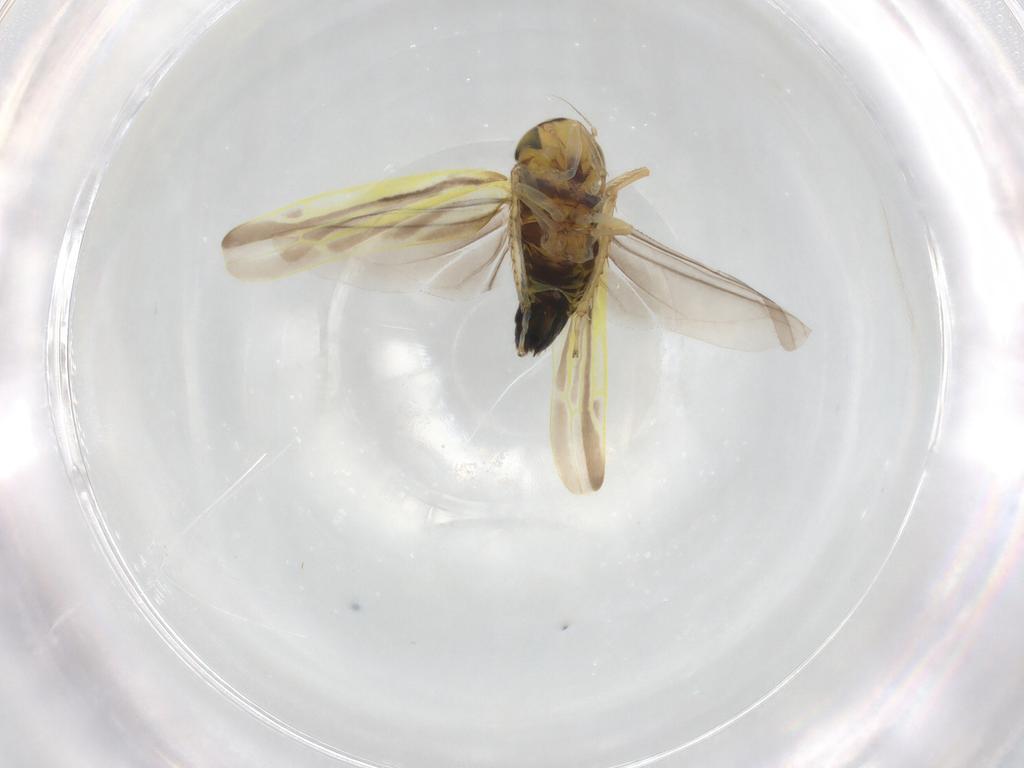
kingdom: Animalia
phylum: Arthropoda
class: Insecta
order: Hemiptera
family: Cicadellidae
